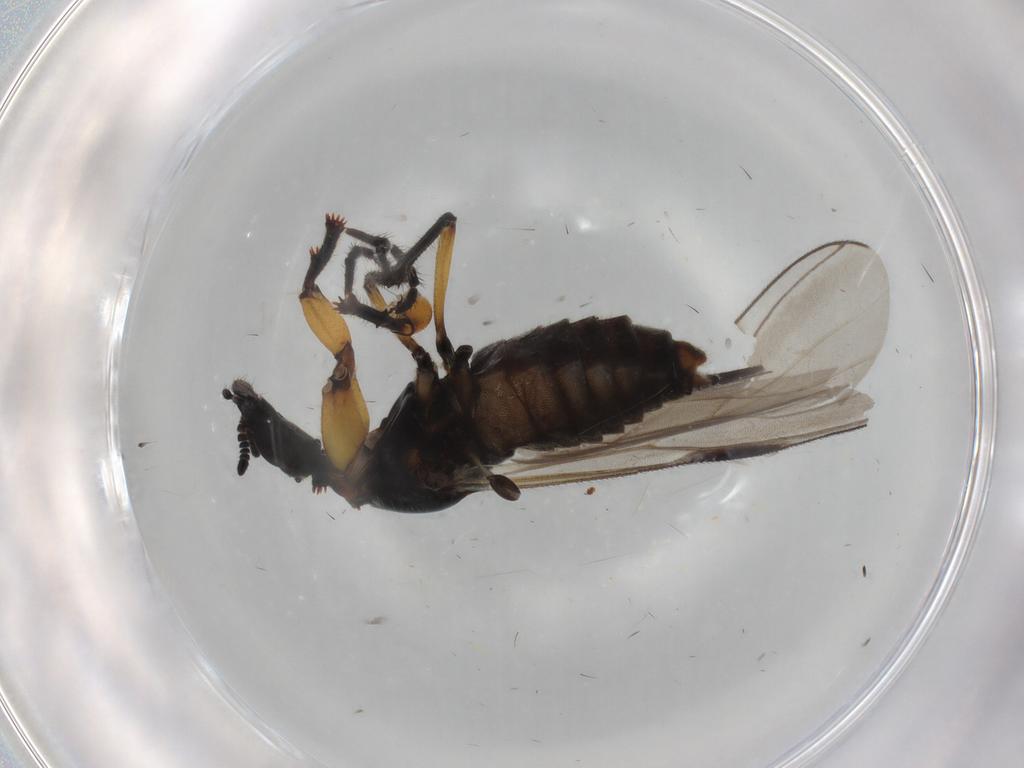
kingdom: Animalia
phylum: Arthropoda
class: Insecta
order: Diptera
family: Bibionidae
